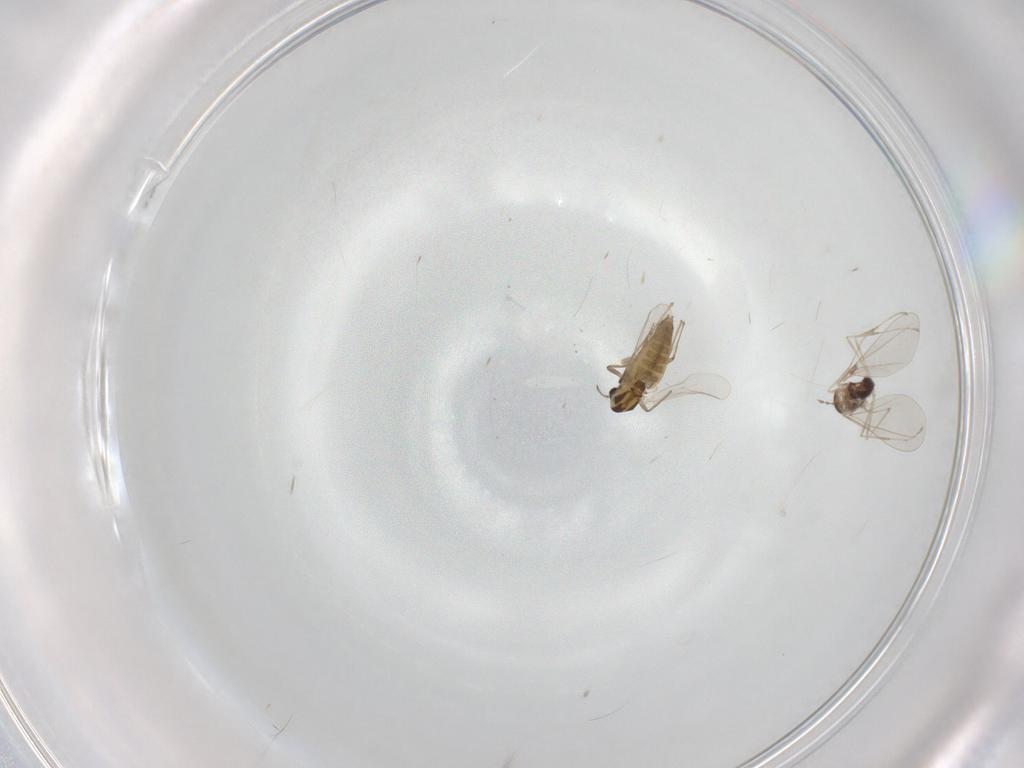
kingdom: Animalia
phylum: Arthropoda
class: Insecta
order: Diptera
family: Chironomidae
